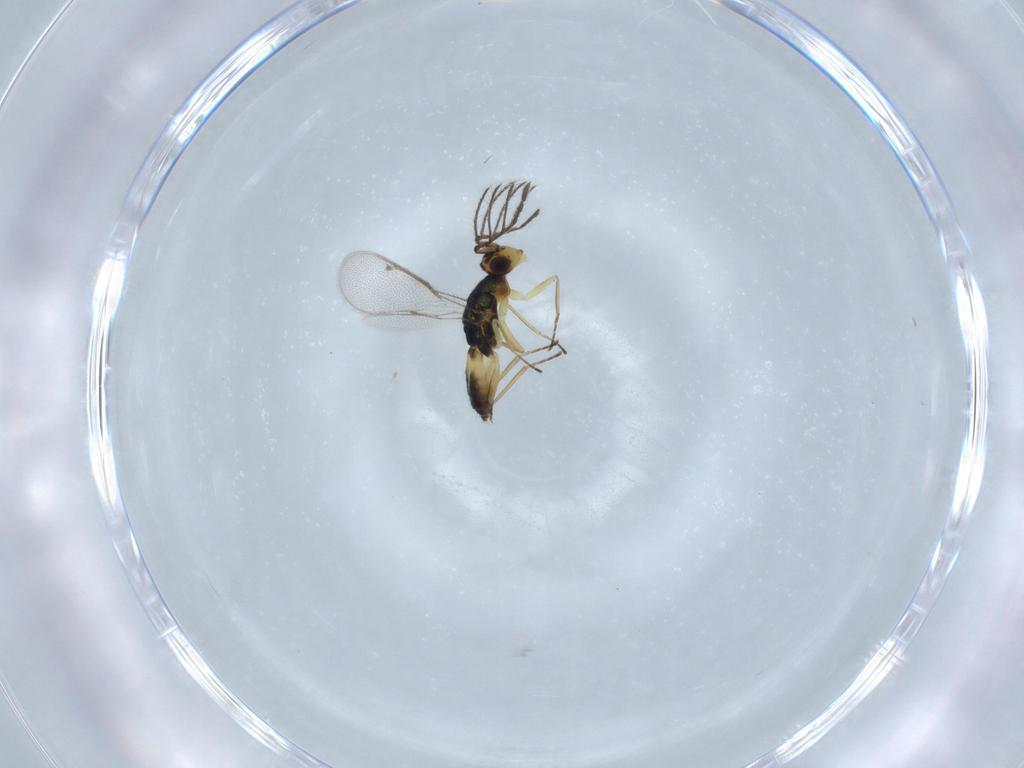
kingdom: Animalia
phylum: Arthropoda
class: Insecta
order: Hymenoptera
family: Eulophidae
